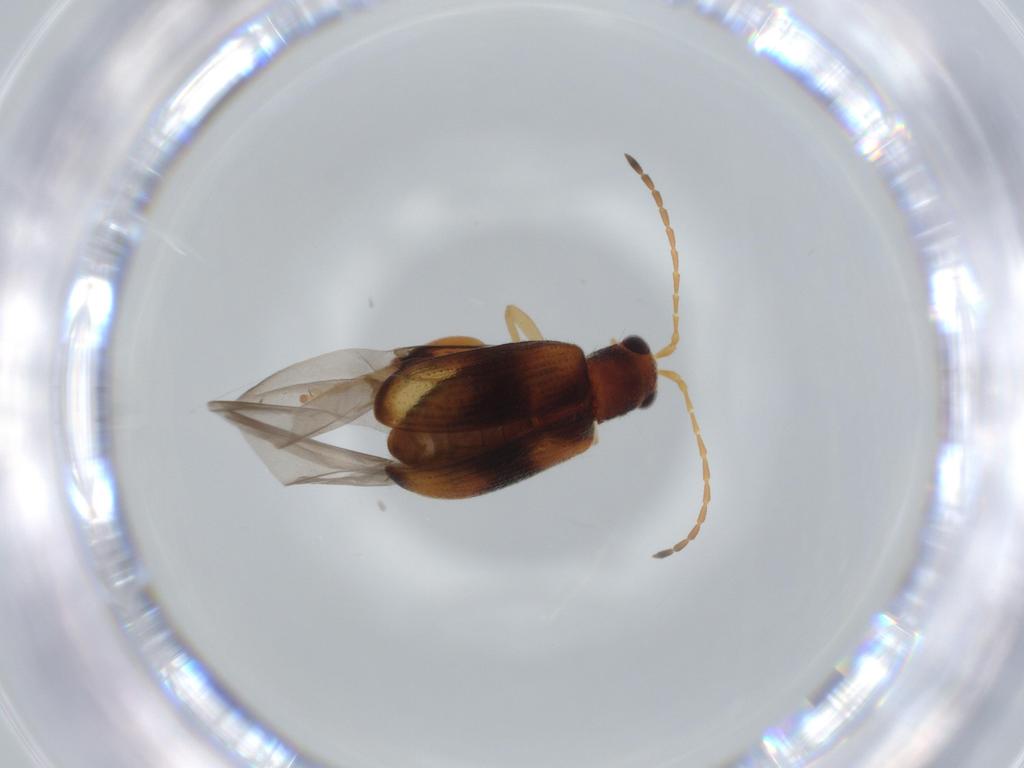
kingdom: Animalia
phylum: Arthropoda
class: Insecta
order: Coleoptera
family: Chrysomelidae
